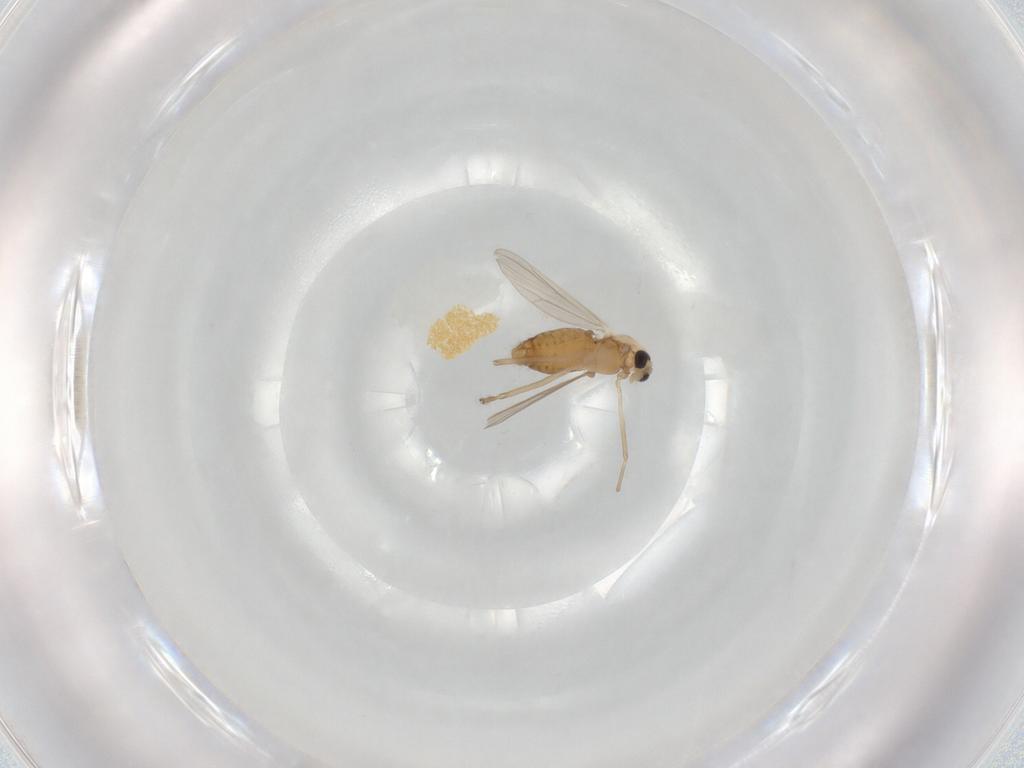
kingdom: Animalia
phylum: Arthropoda
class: Insecta
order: Diptera
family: Chironomidae
